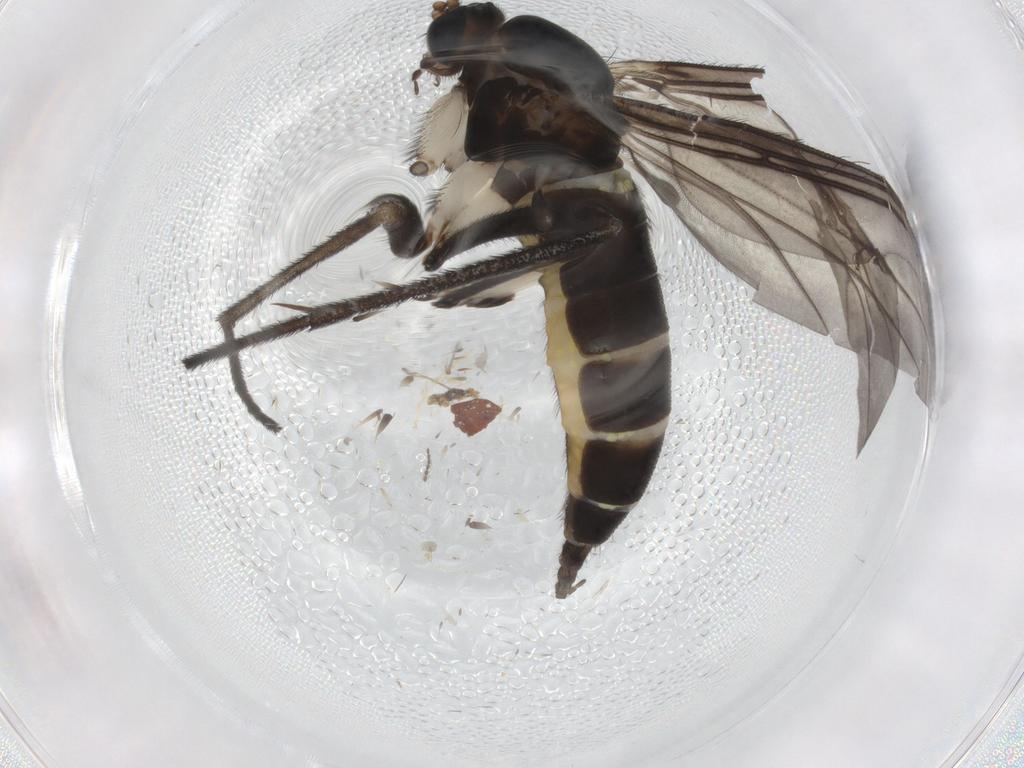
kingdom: Animalia
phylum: Arthropoda
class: Insecta
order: Diptera
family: Sciaridae
